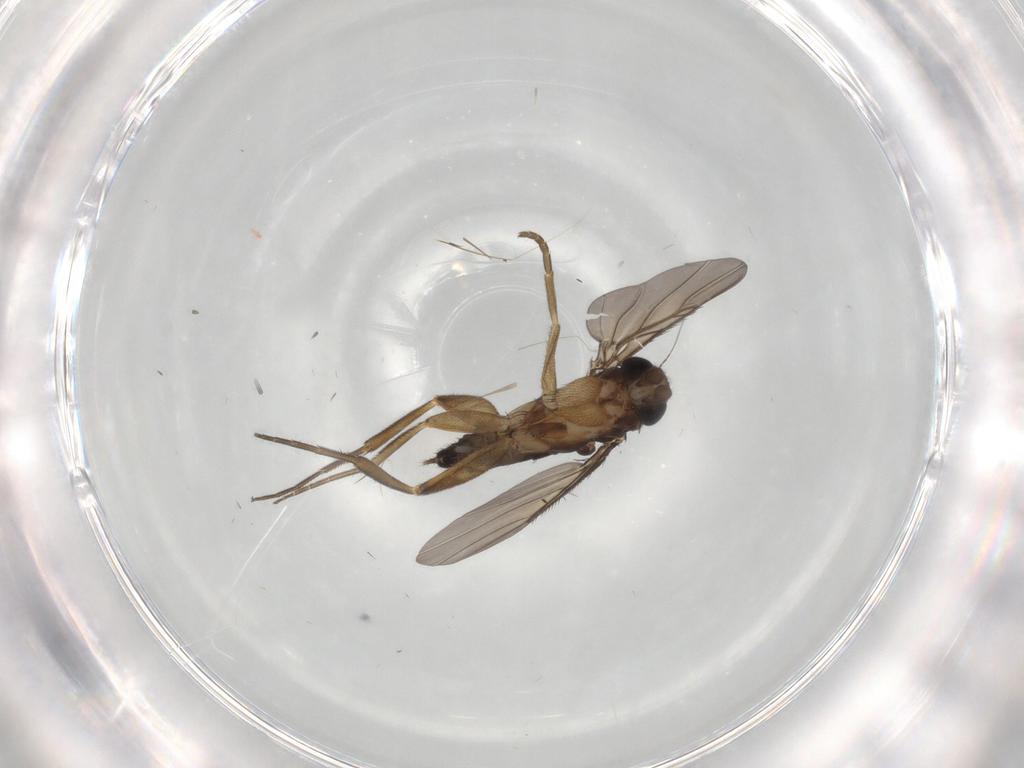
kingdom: Animalia
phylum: Arthropoda
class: Insecta
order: Diptera
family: Phoridae
